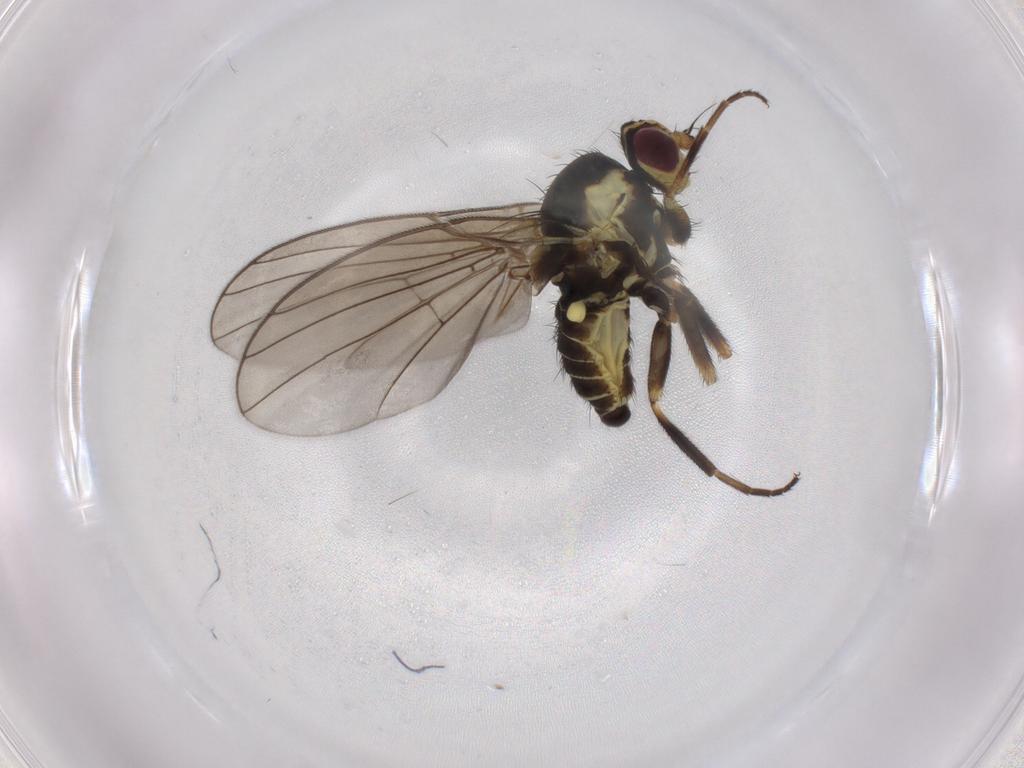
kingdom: Animalia
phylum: Arthropoda
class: Insecta
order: Diptera
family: Agromyzidae
